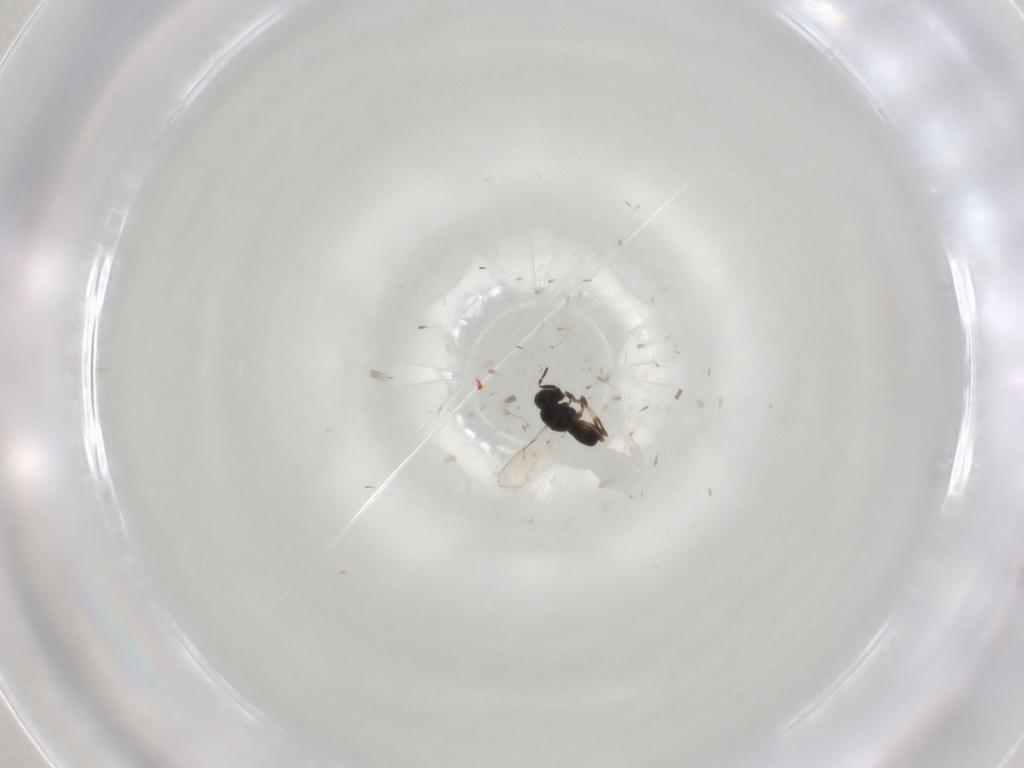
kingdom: Animalia
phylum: Arthropoda
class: Insecta
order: Hymenoptera
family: Scelionidae
